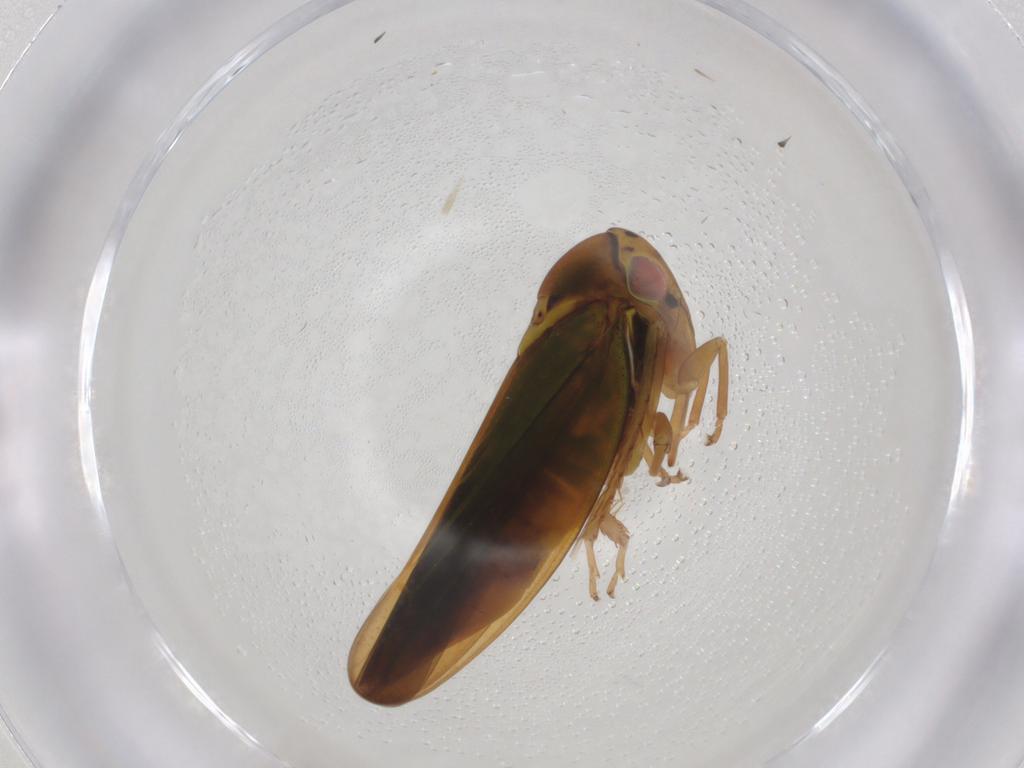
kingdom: Animalia
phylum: Arthropoda
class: Insecta
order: Hemiptera
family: Cicadellidae
